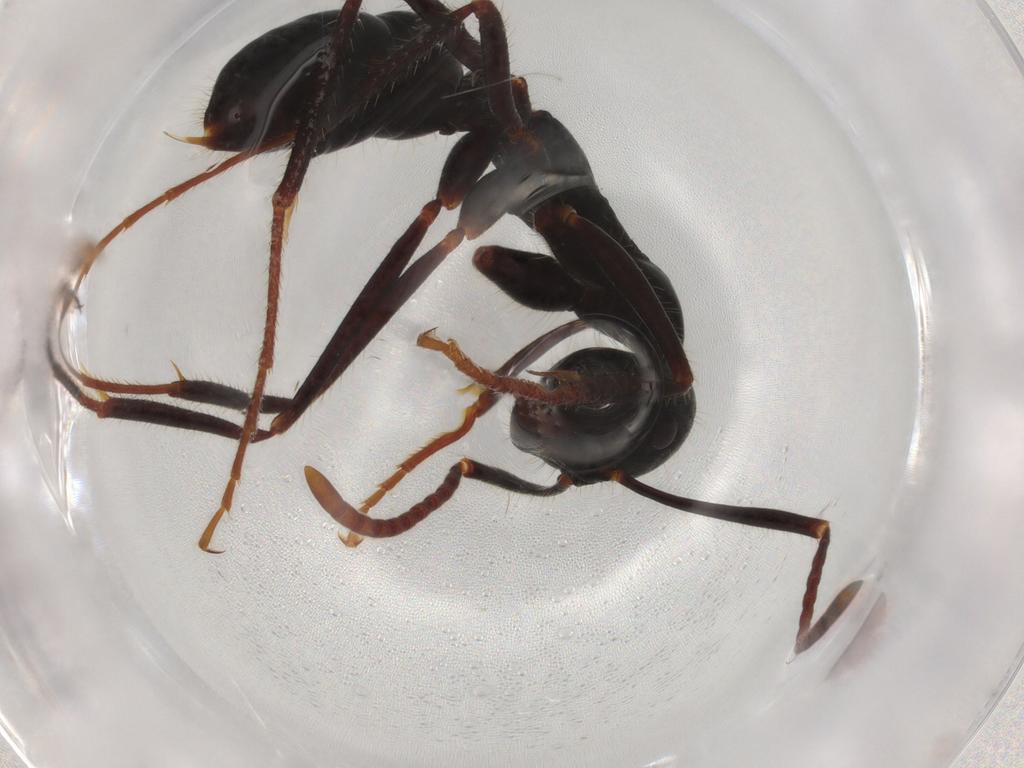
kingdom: Animalia
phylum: Arthropoda
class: Insecta
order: Hymenoptera
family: Formicidae
